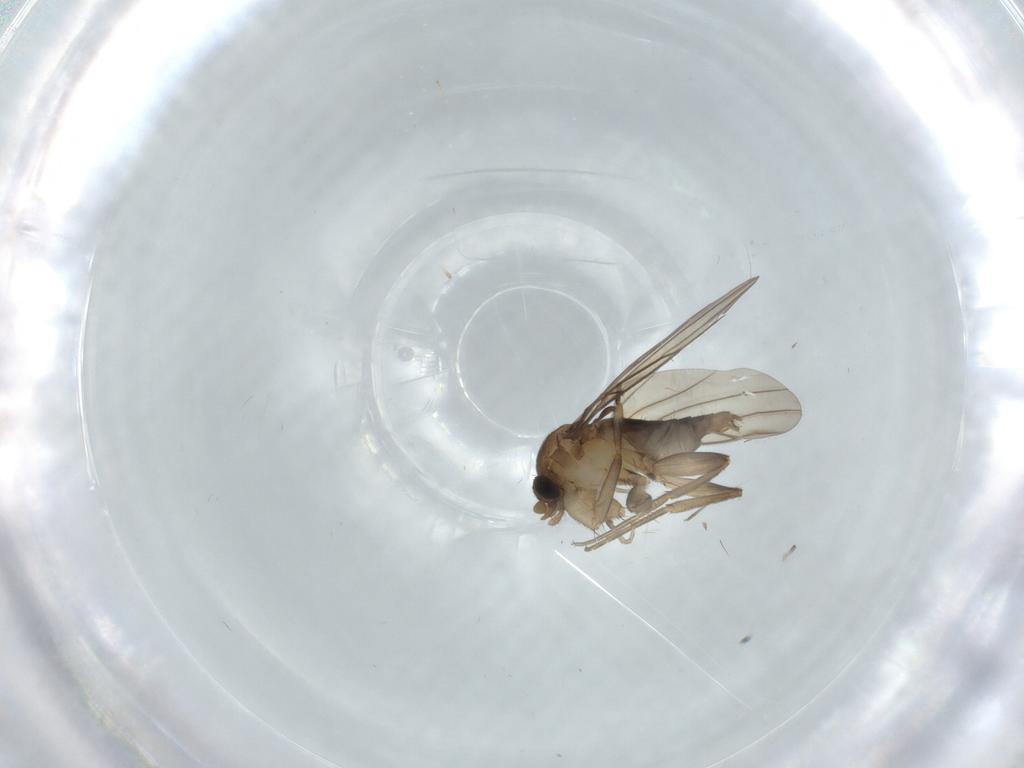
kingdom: Animalia
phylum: Arthropoda
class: Insecta
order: Diptera
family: Phoridae
